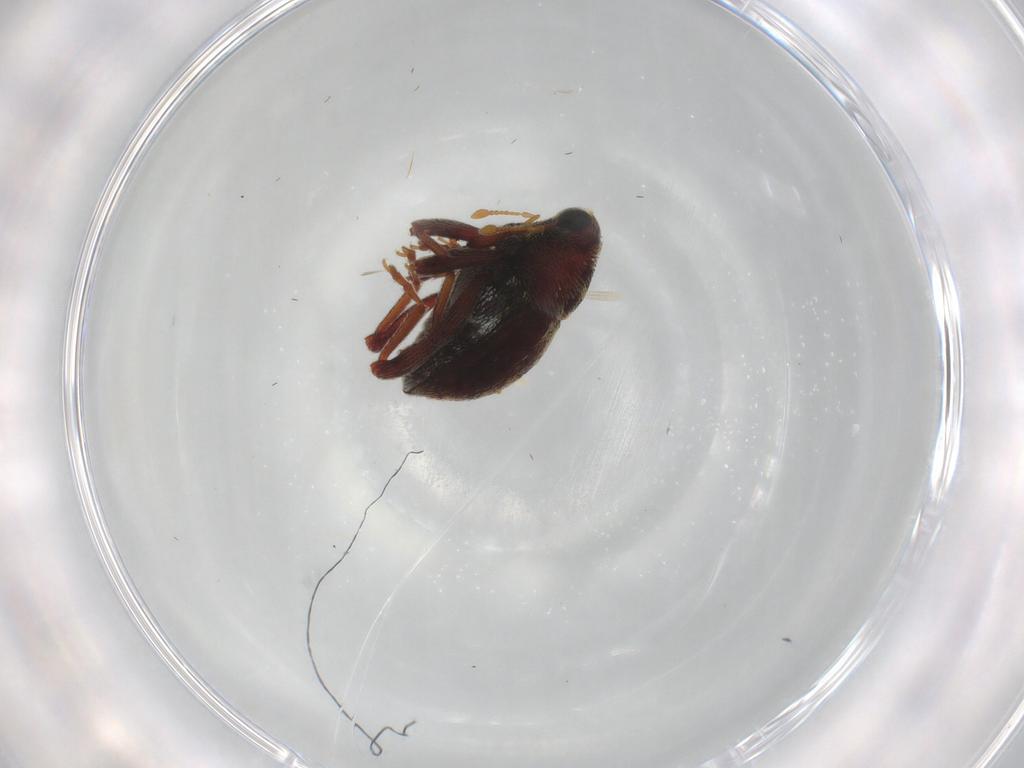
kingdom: Animalia
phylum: Arthropoda
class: Insecta
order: Coleoptera
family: Curculionidae
